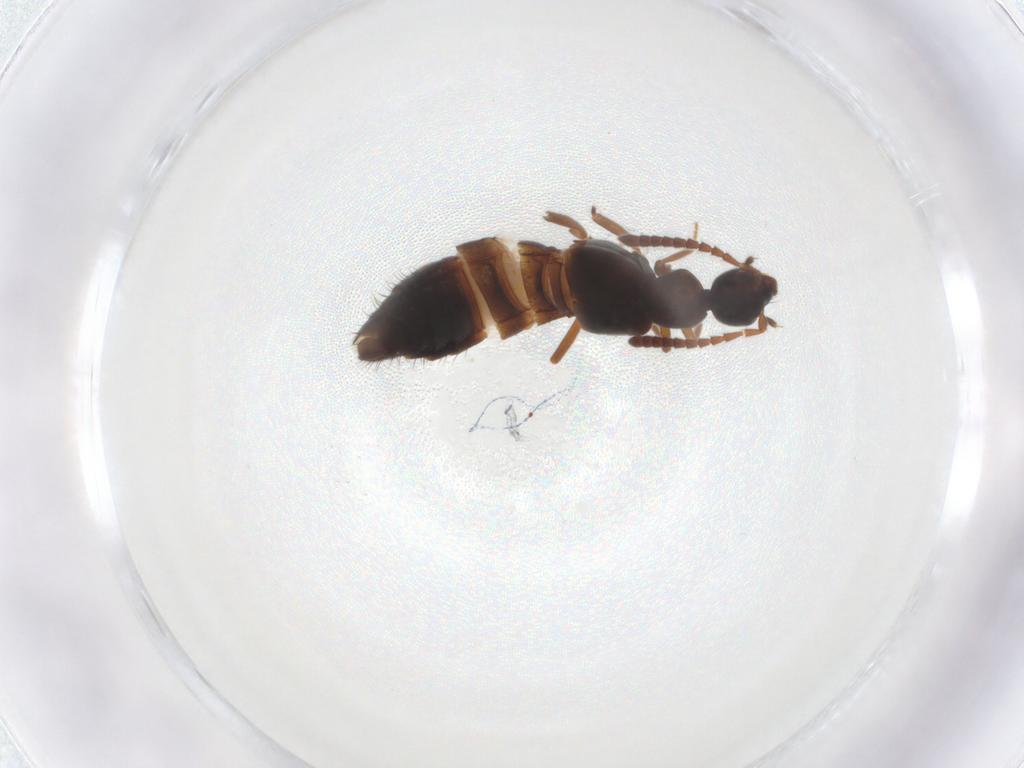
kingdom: Animalia
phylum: Arthropoda
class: Insecta
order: Coleoptera
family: Staphylinidae
